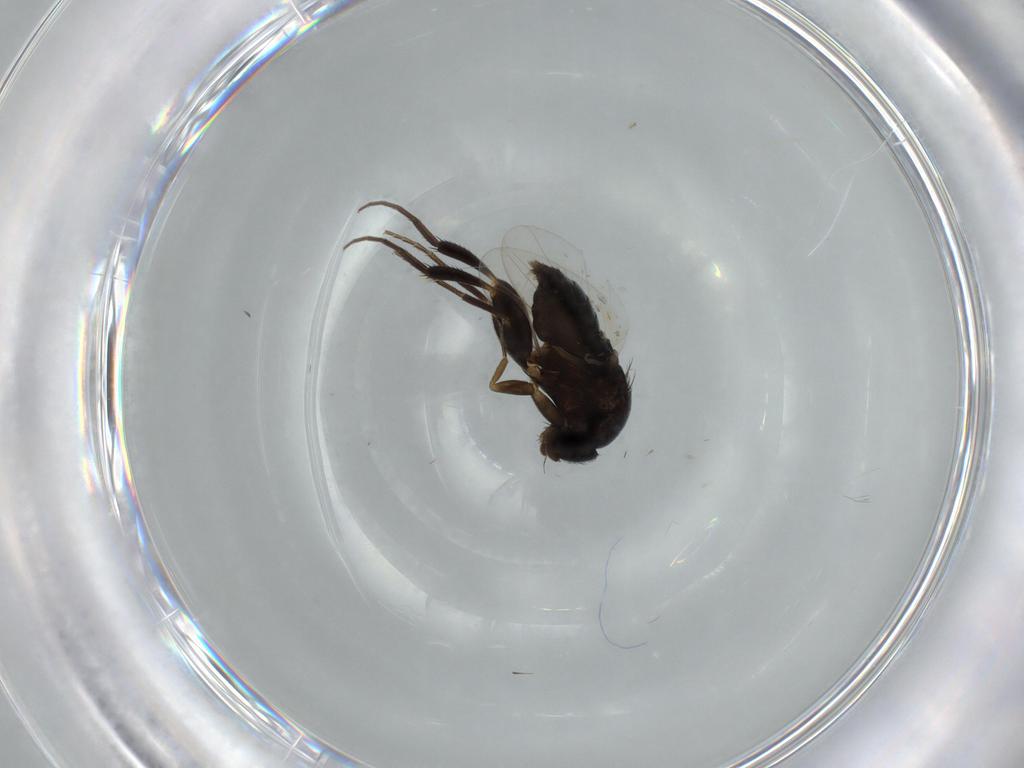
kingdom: Animalia
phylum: Arthropoda
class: Insecta
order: Diptera
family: Phoridae
